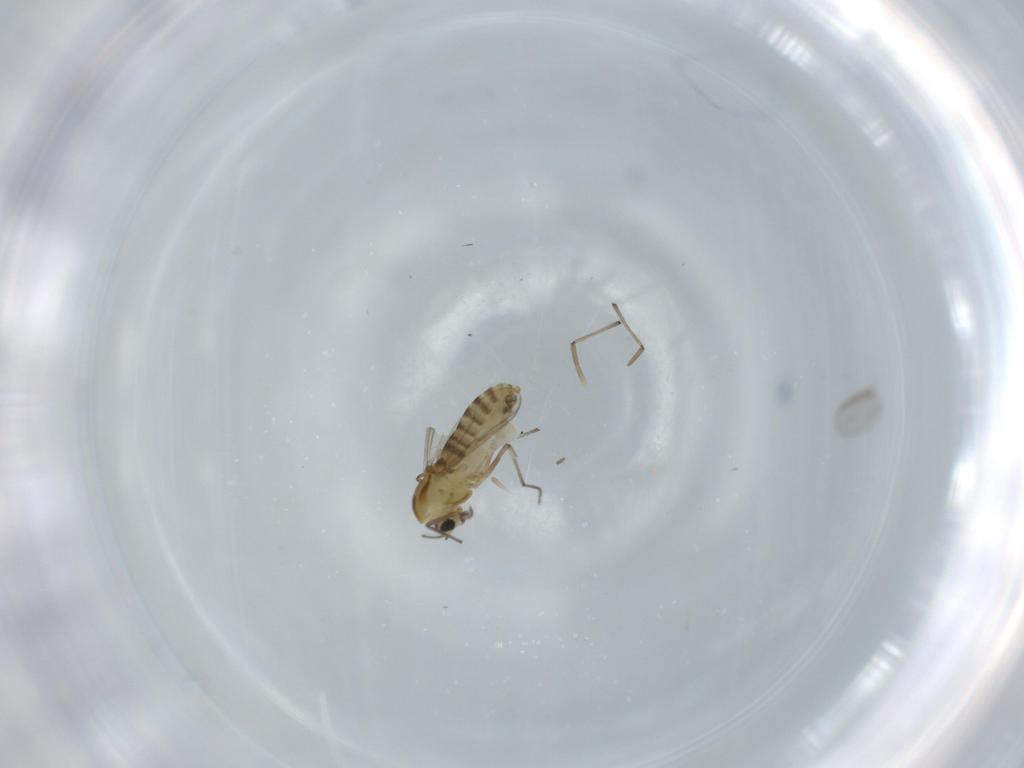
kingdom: Animalia
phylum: Arthropoda
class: Insecta
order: Diptera
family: Chironomidae
